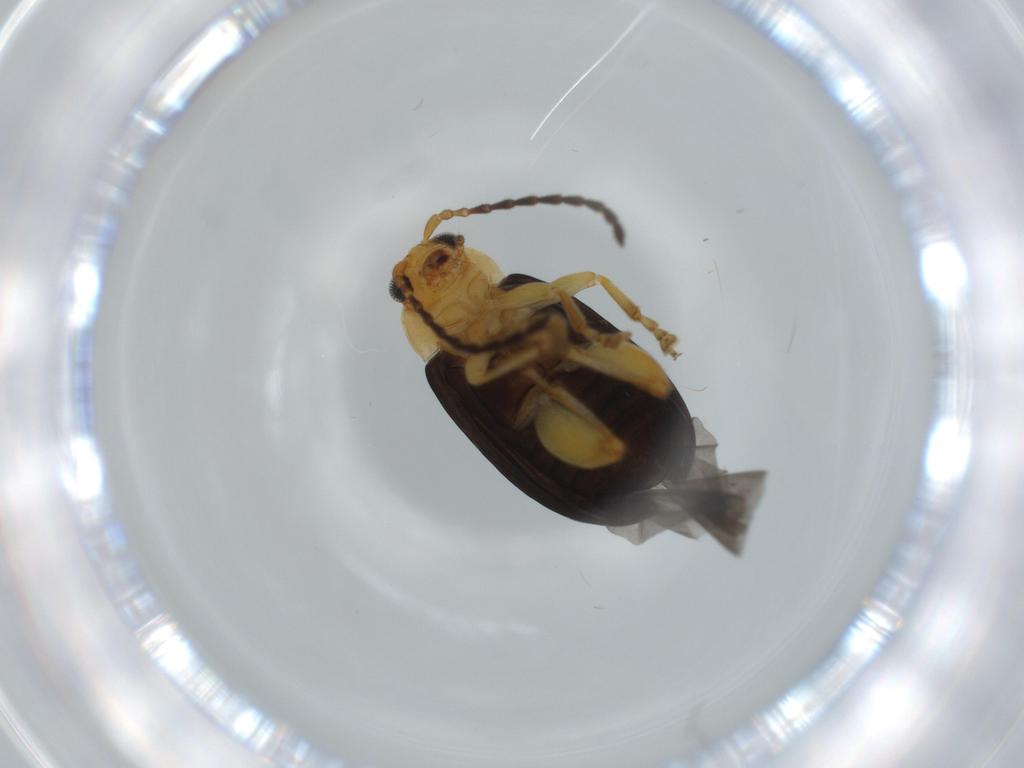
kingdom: Animalia
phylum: Arthropoda
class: Insecta
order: Coleoptera
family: Chrysomelidae
